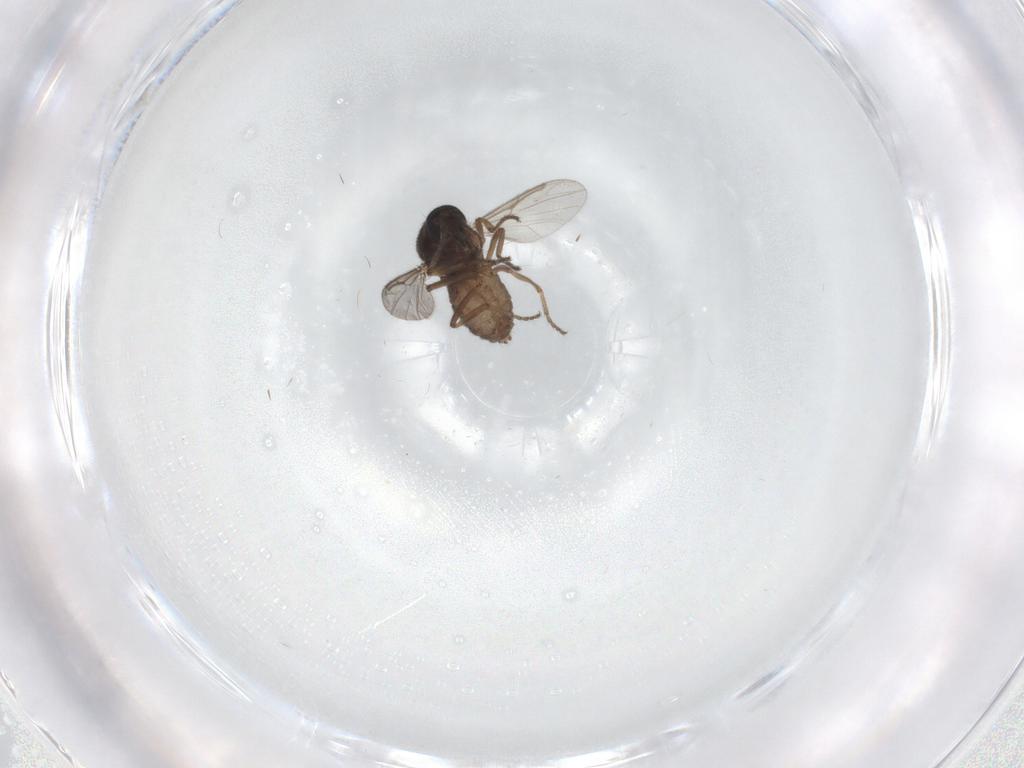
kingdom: Animalia
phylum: Arthropoda
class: Insecta
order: Diptera
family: Ceratopogonidae
